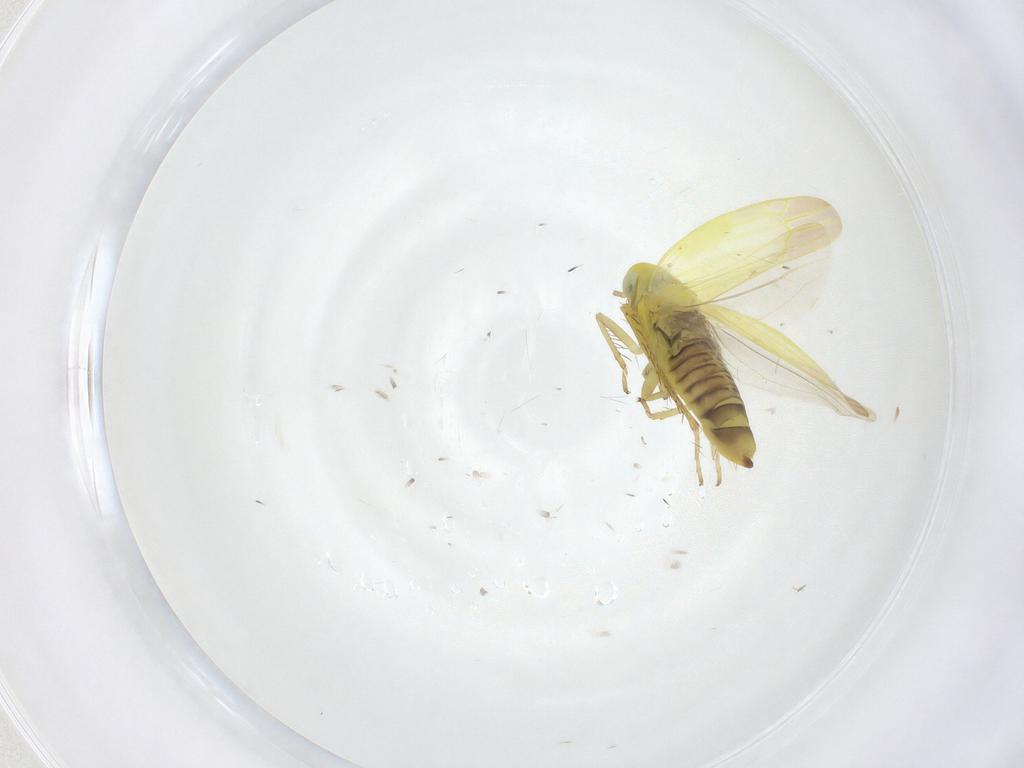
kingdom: Animalia
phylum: Arthropoda
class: Insecta
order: Hemiptera
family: Cicadellidae
